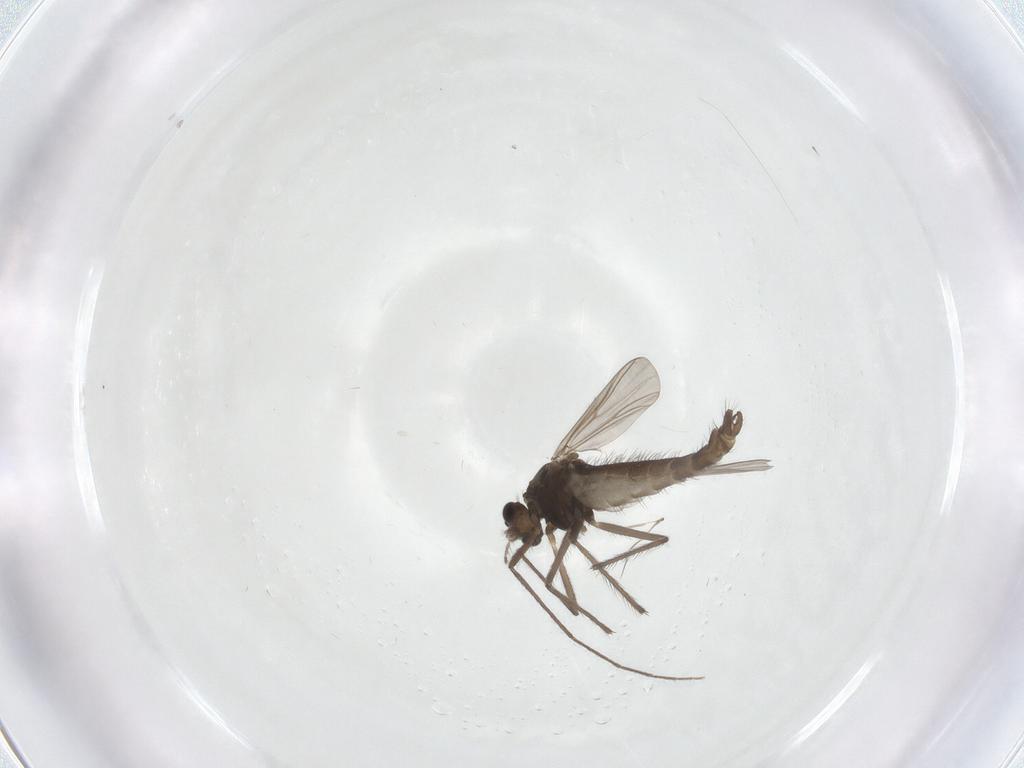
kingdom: Animalia
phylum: Arthropoda
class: Insecta
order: Diptera
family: Chironomidae
